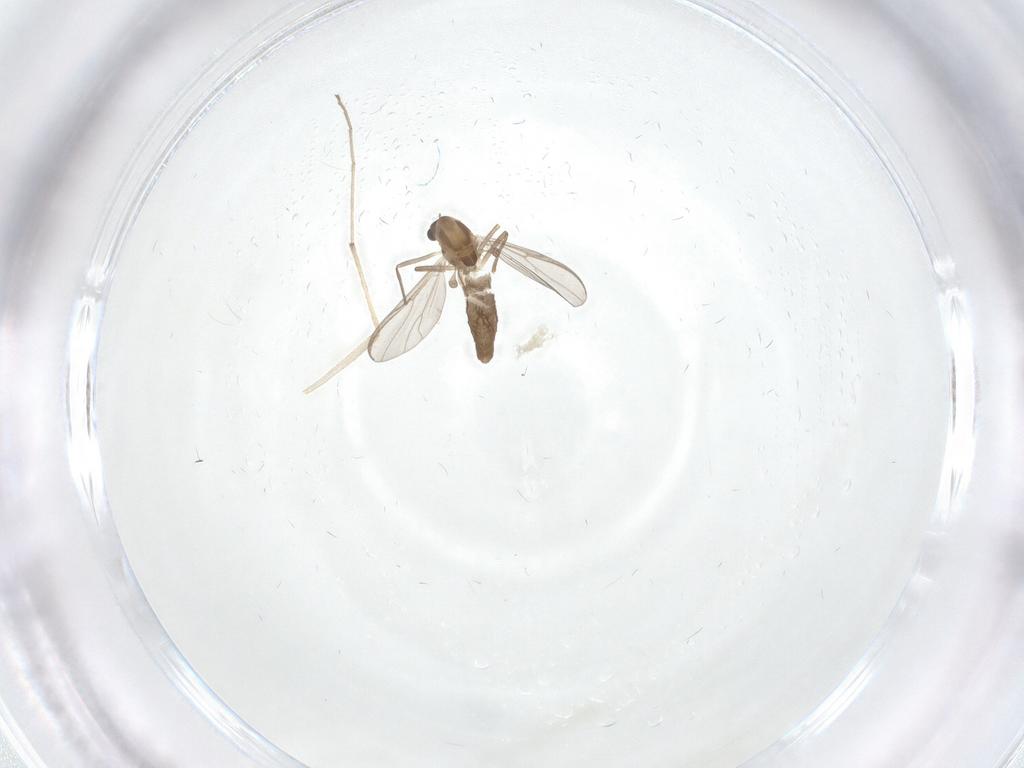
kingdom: Animalia
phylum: Arthropoda
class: Insecta
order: Diptera
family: Chironomidae
